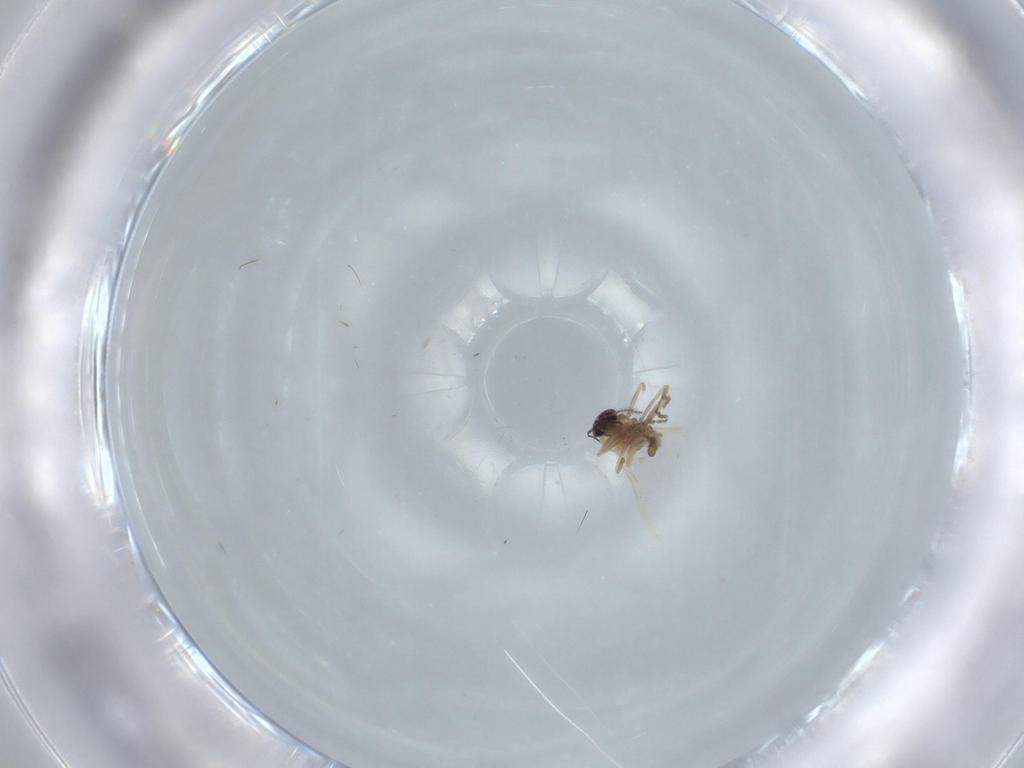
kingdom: Animalia
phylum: Arthropoda
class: Insecta
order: Diptera
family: Ceratopogonidae
